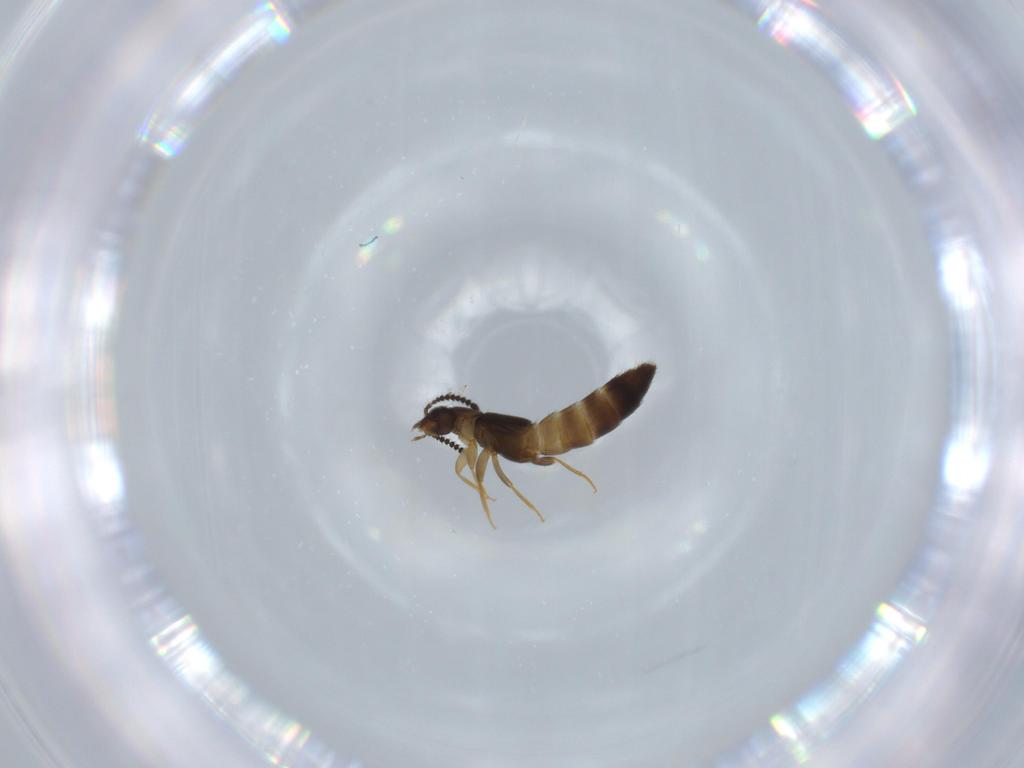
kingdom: Animalia
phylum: Arthropoda
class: Insecta
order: Coleoptera
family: Staphylinidae
